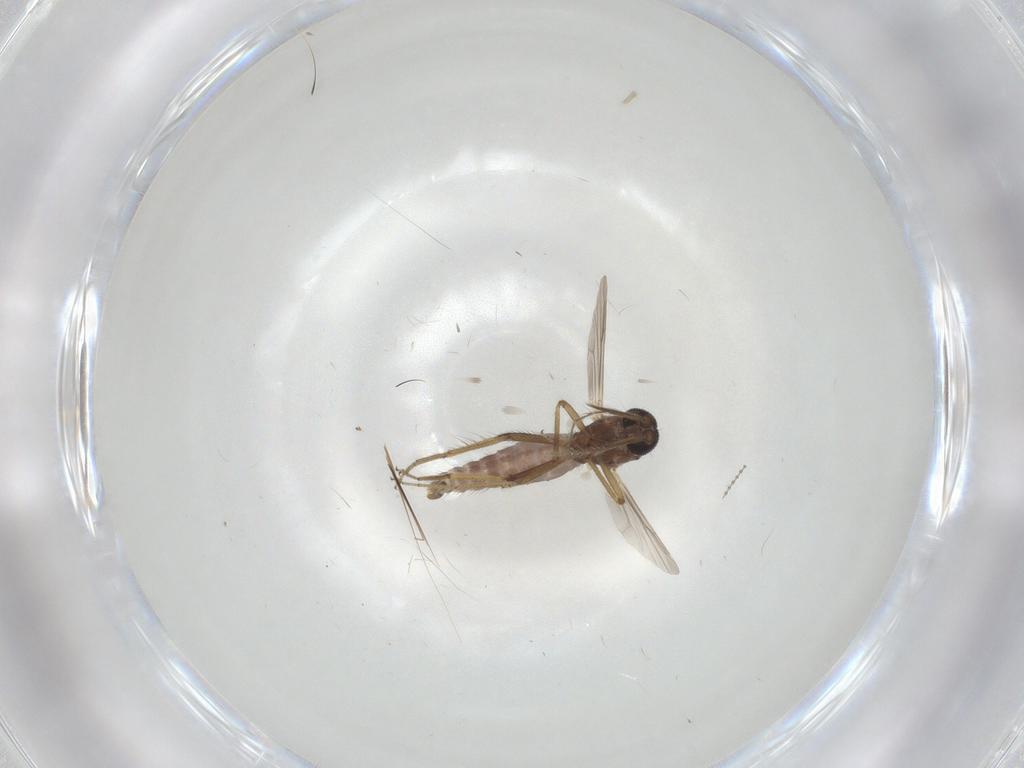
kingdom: Animalia
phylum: Arthropoda
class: Insecta
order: Diptera
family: Ceratopogonidae
